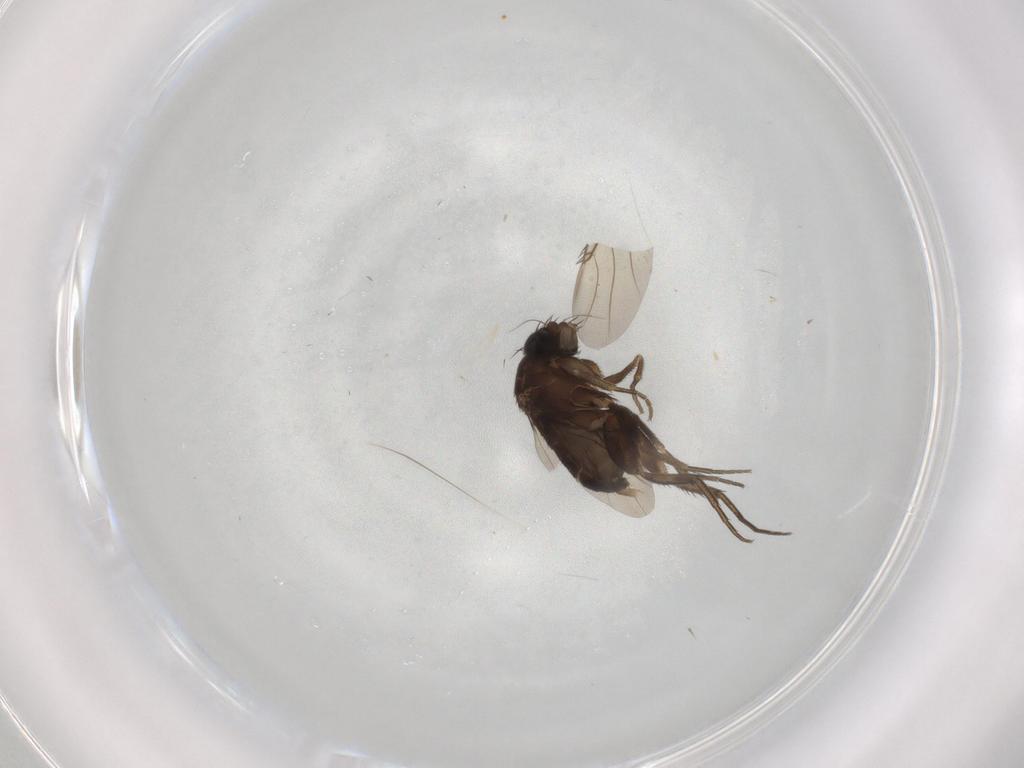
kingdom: Animalia
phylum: Arthropoda
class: Insecta
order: Diptera
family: Phoridae
